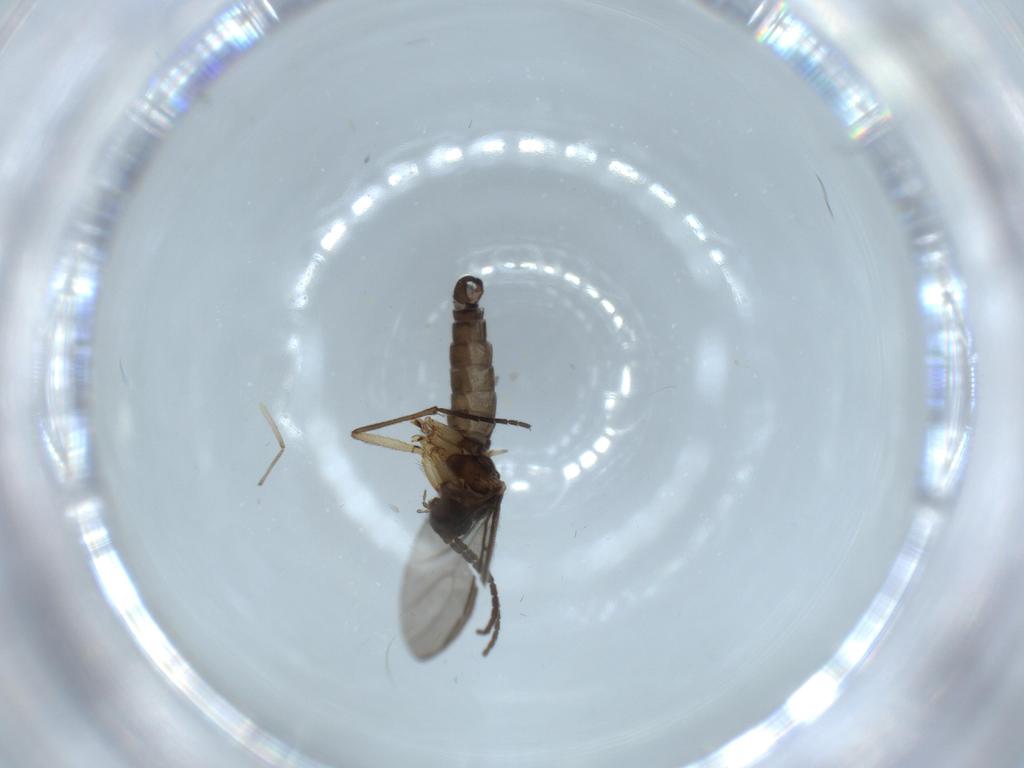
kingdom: Animalia
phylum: Arthropoda
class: Insecta
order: Diptera
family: Sciaridae
